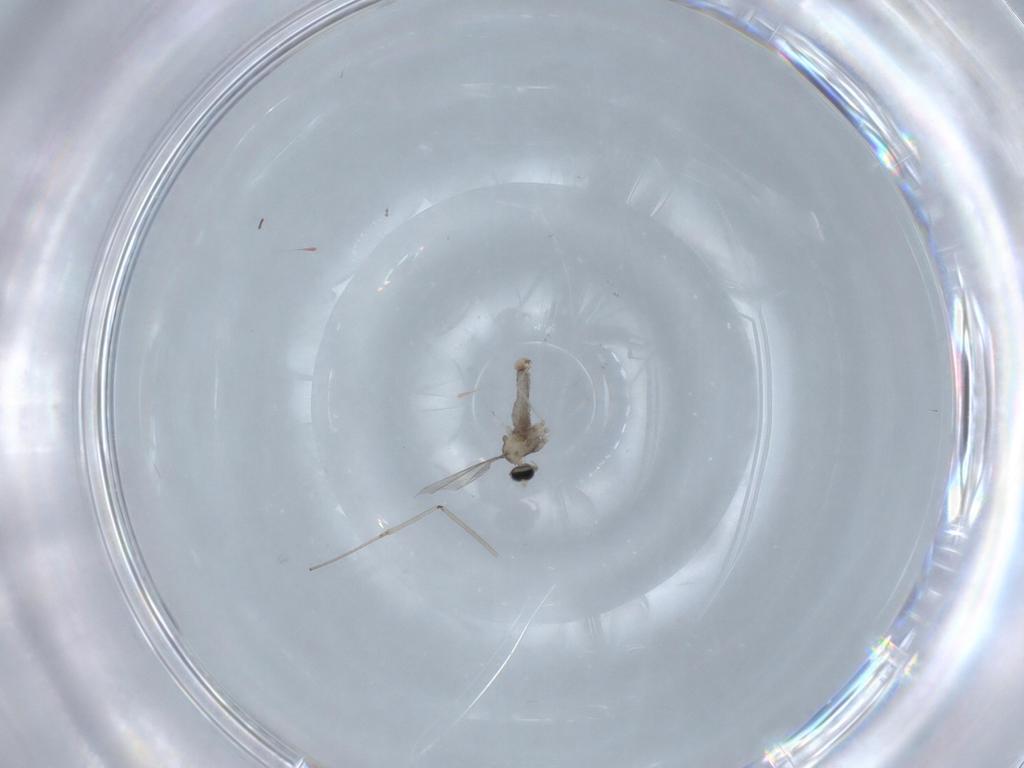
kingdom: Animalia
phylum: Arthropoda
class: Insecta
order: Diptera
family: Cecidomyiidae
